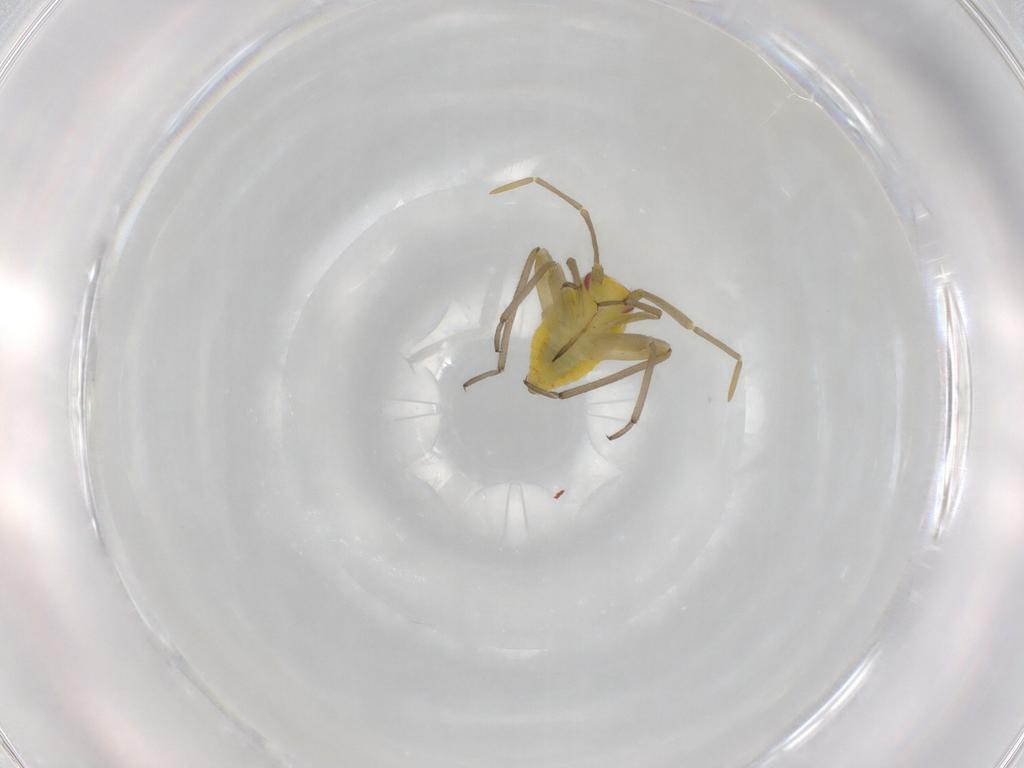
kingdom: Animalia
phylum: Arthropoda
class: Insecta
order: Hemiptera
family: Miridae
